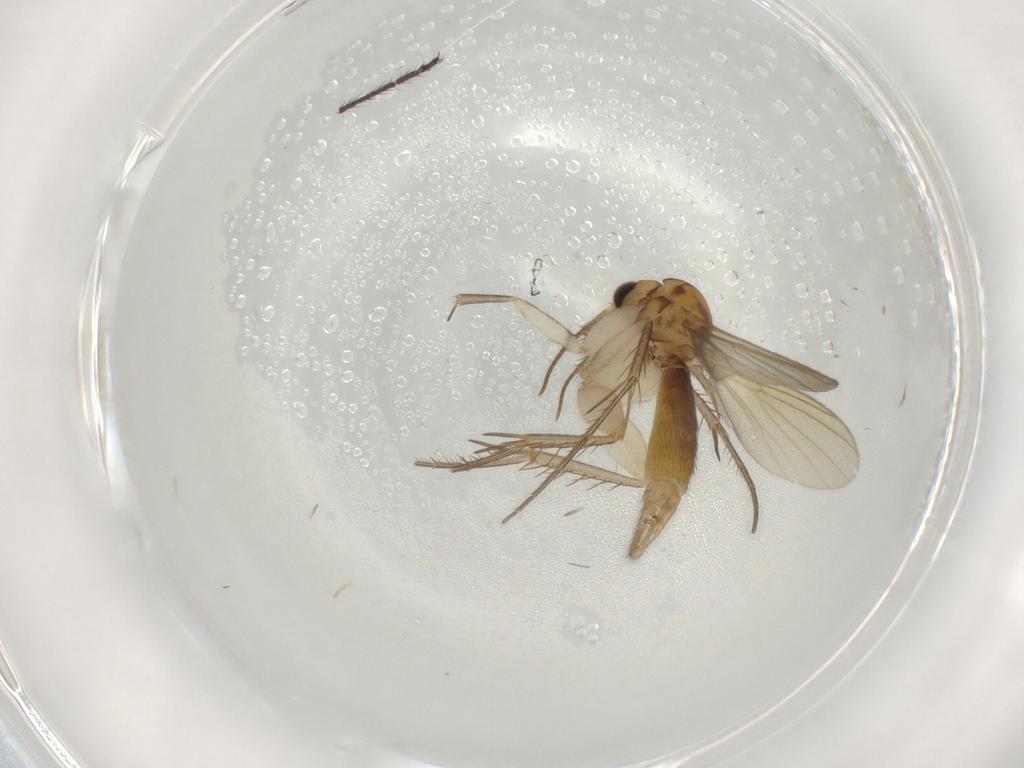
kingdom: Animalia
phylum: Arthropoda
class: Insecta
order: Diptera
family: Mycetophilidae
